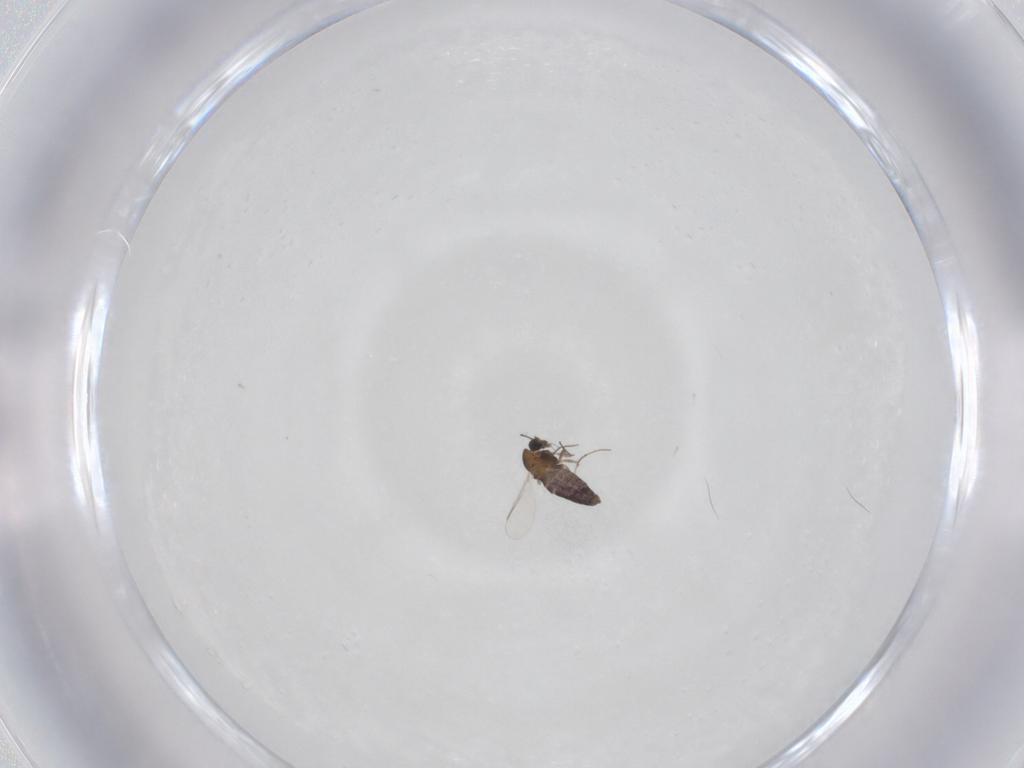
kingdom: Animalia
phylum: Arthropoda
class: Insecta
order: Diptera
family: Chironomidae
